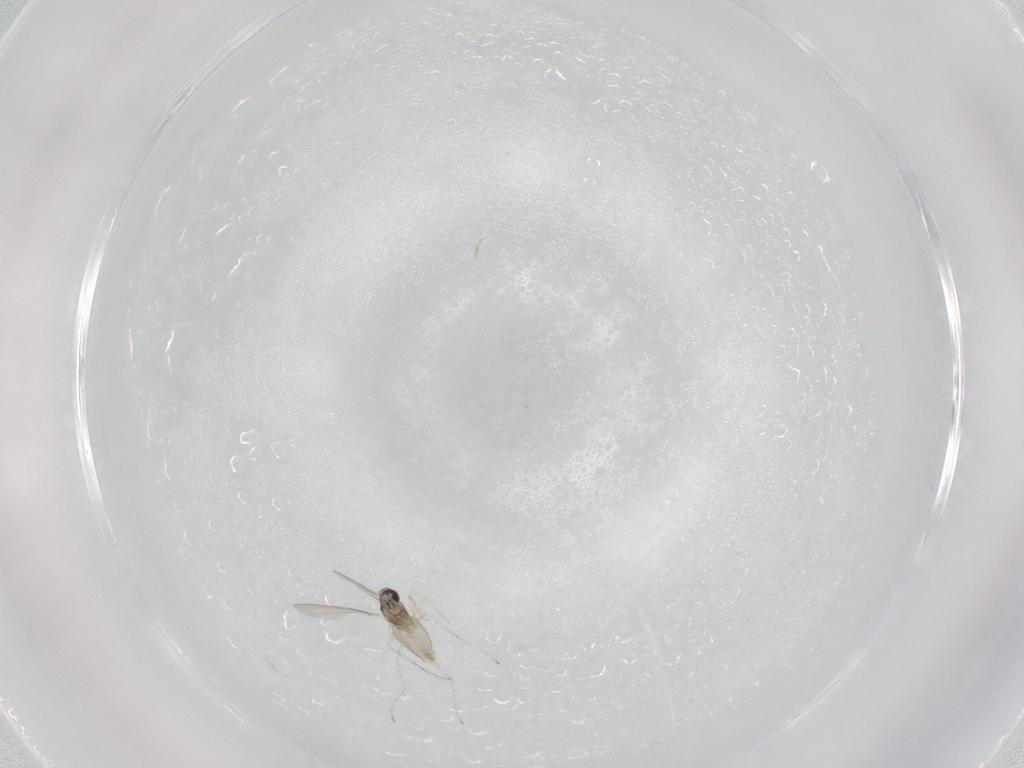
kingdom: Animalia
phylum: Arthropoda
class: Insecta
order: Diptera
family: Cecidomyiidae
